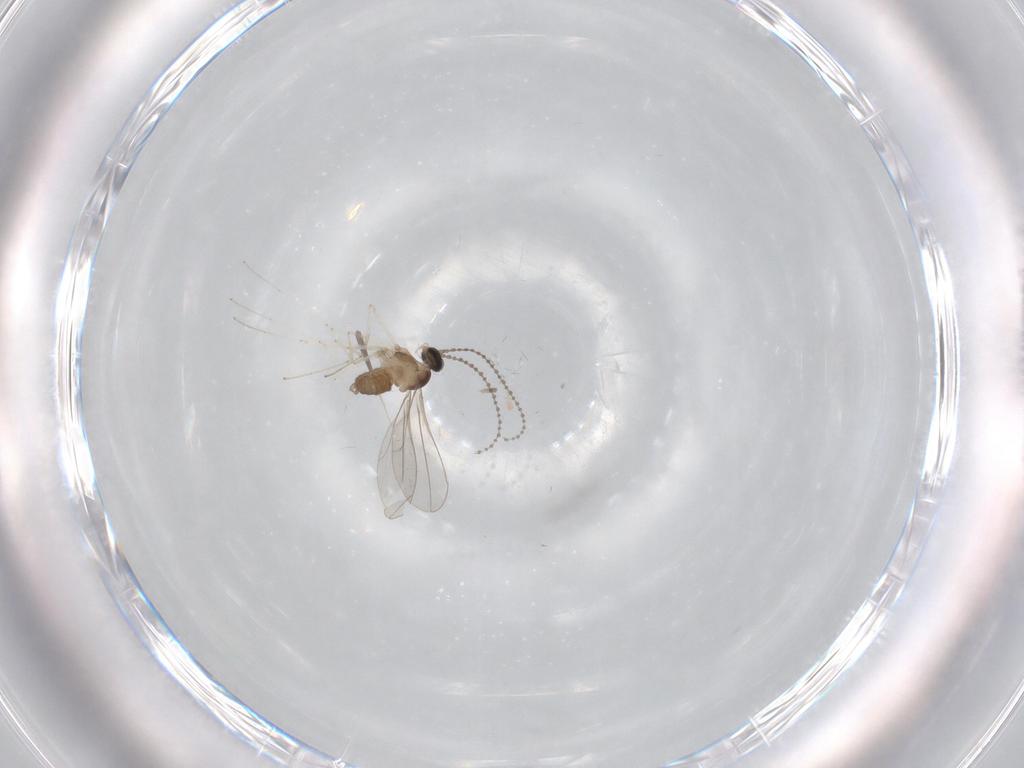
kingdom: Animalia
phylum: Arthropoda
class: Insecta
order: Diptera
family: Cecidomyiidae
